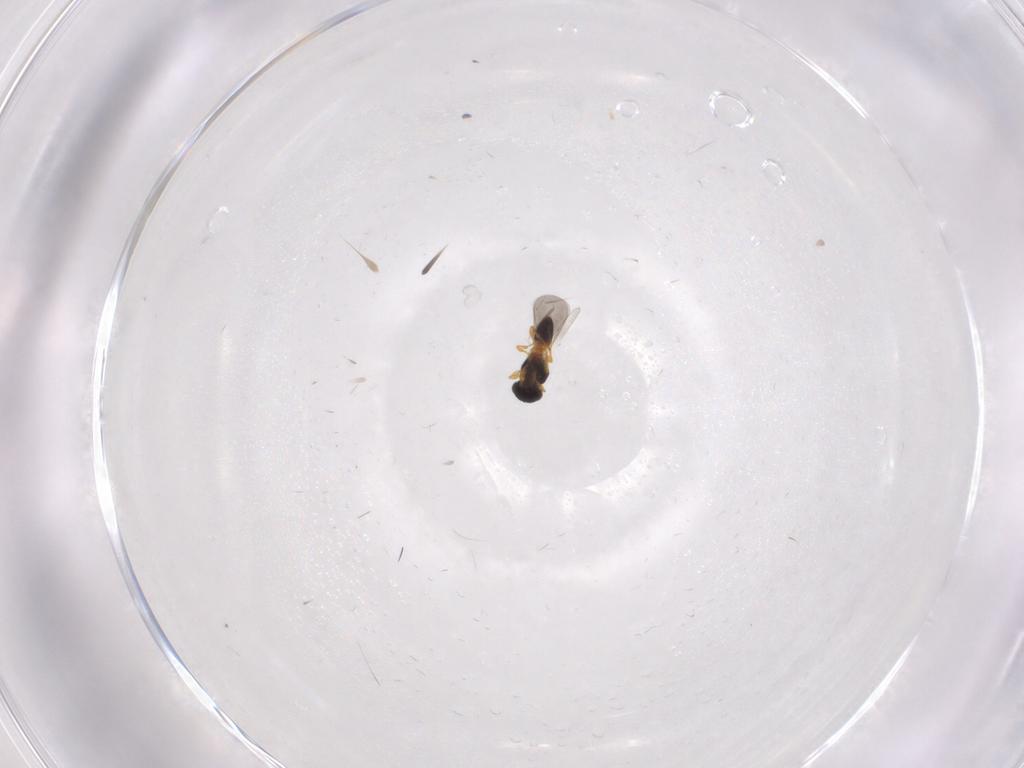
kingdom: Animalia
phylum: Arthropoda
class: Insecta
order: Hymenoptera
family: Platygastridae
